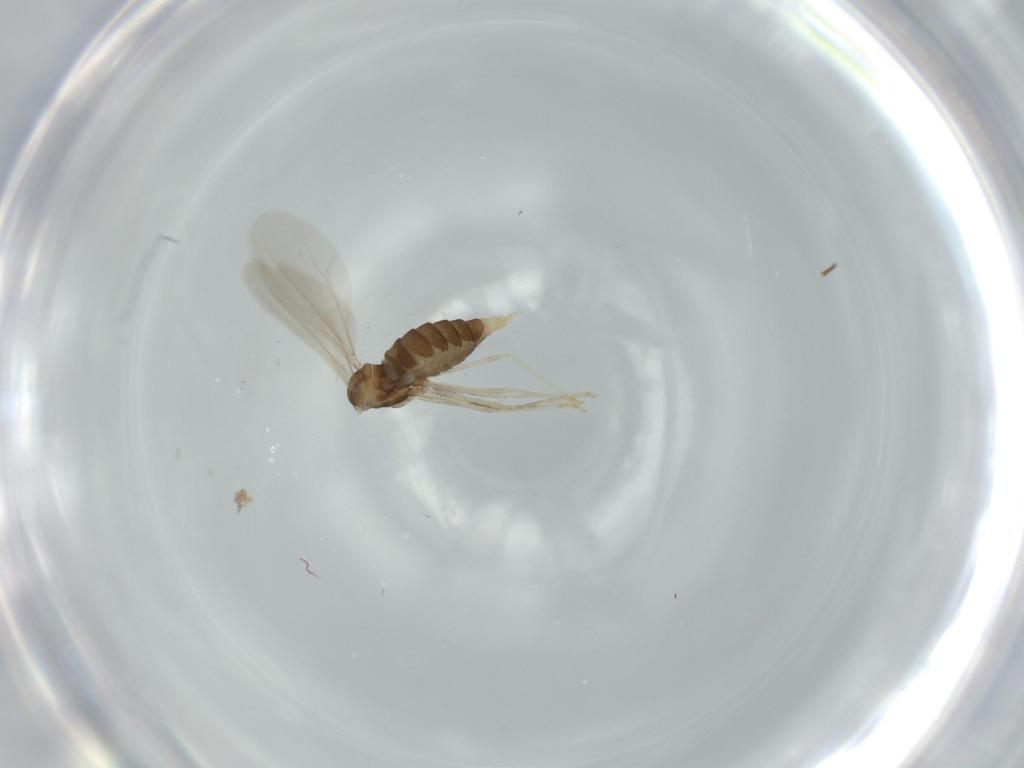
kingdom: Animalia
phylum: Arthropoda
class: Insecta
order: Diptera
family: Cecidomyiidae
